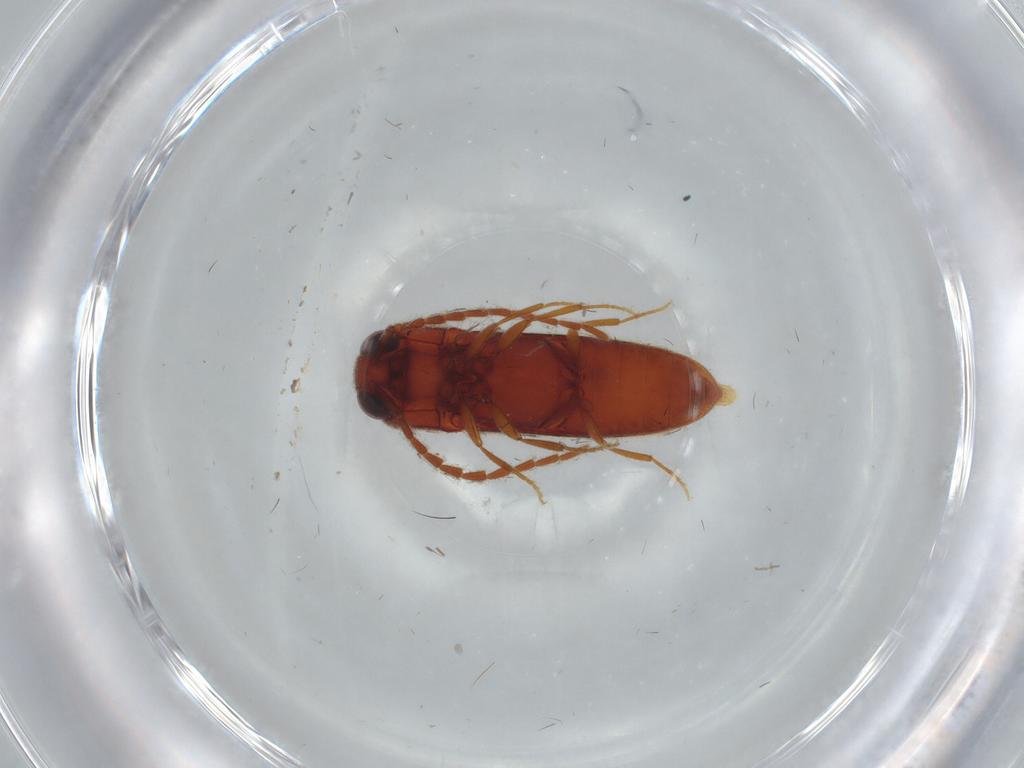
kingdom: Animalia
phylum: Arthropoda
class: Insecta
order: Coleoptera
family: Eucnemidae
